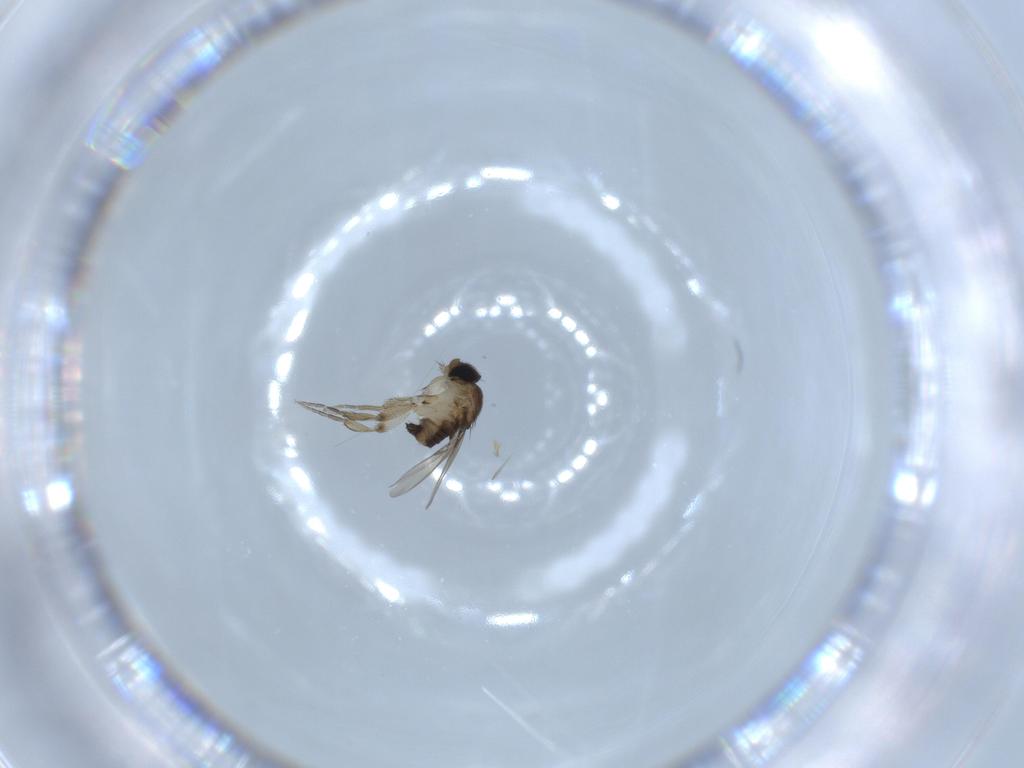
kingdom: Animalia
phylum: Arthropoda
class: Insecta
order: Diptera
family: Phoridae
